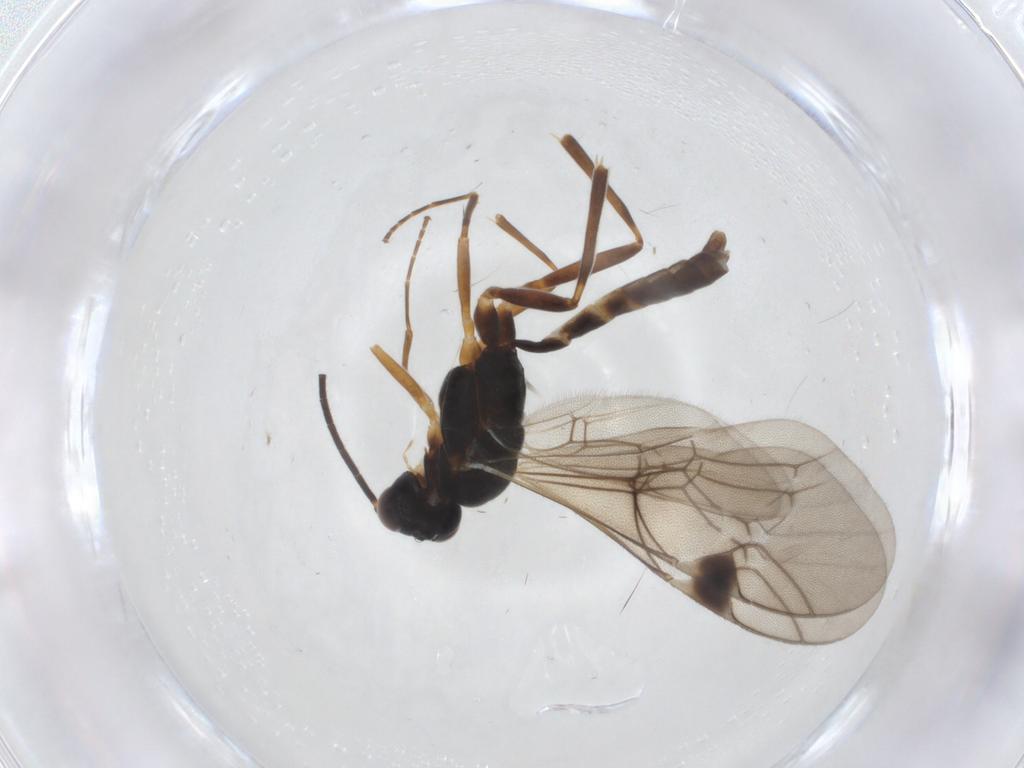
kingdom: Animalia
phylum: Arthropoda
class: Insecta
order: Hymenoptera
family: Ichneumonidae
